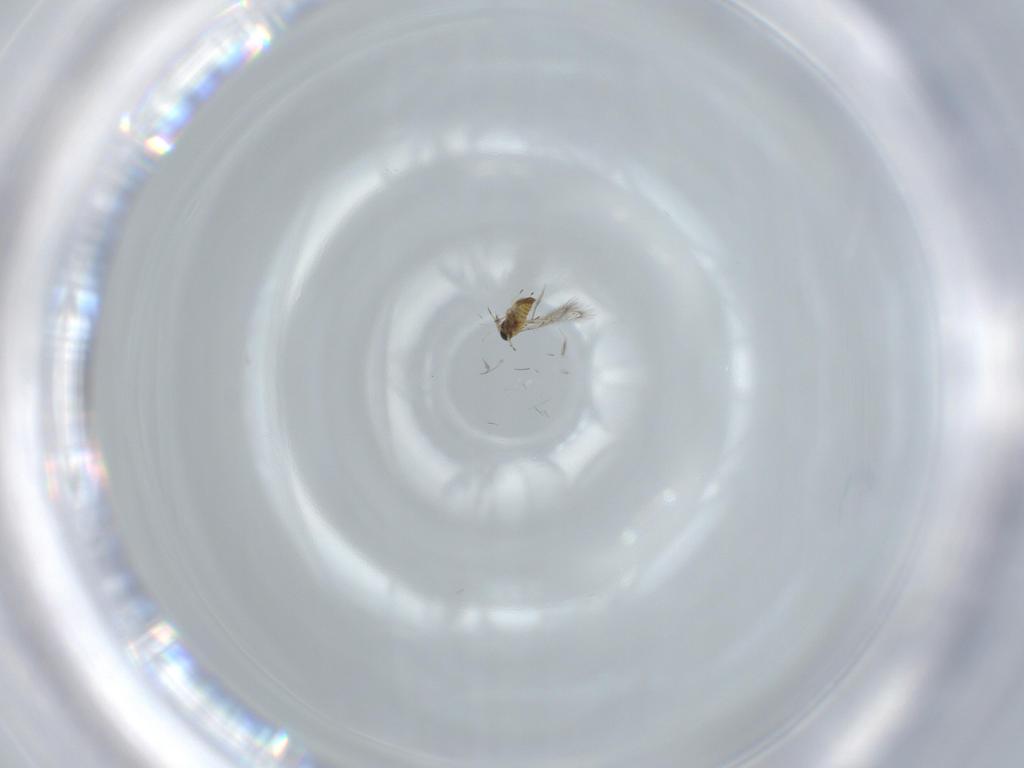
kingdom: Animalia
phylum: Arthropoda
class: Insecta
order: Hymenoptera
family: Trichogrammatidae
